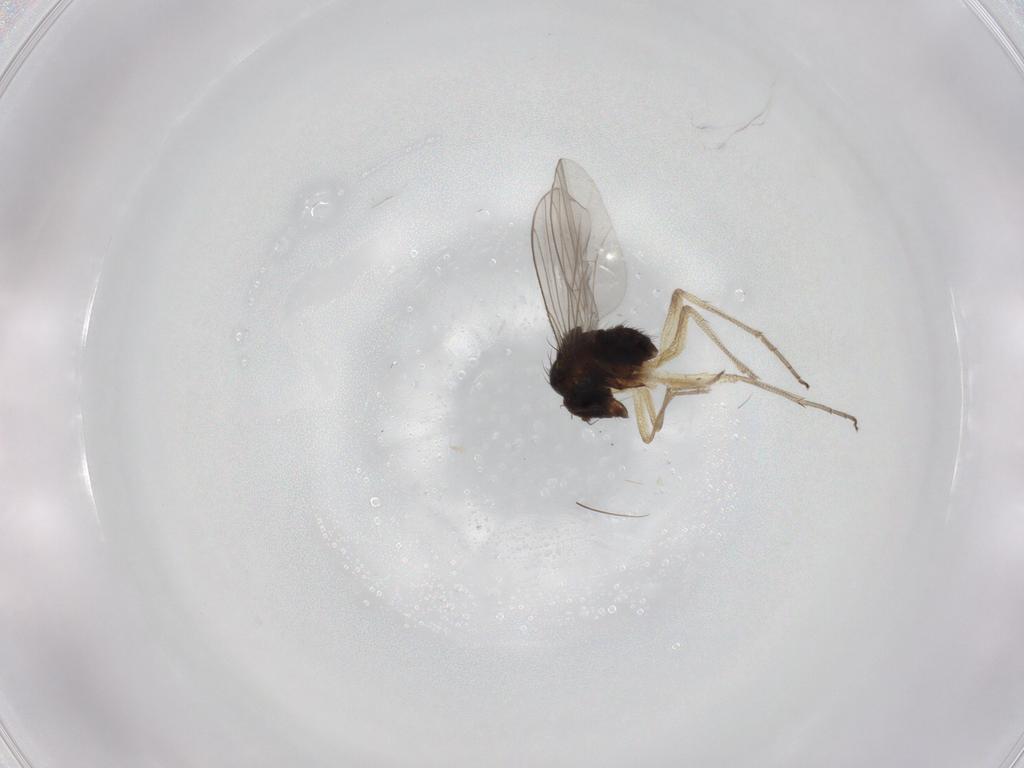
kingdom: Animalia
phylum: Arthropoda
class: Insecta
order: Diptera
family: Dolichopodidae
